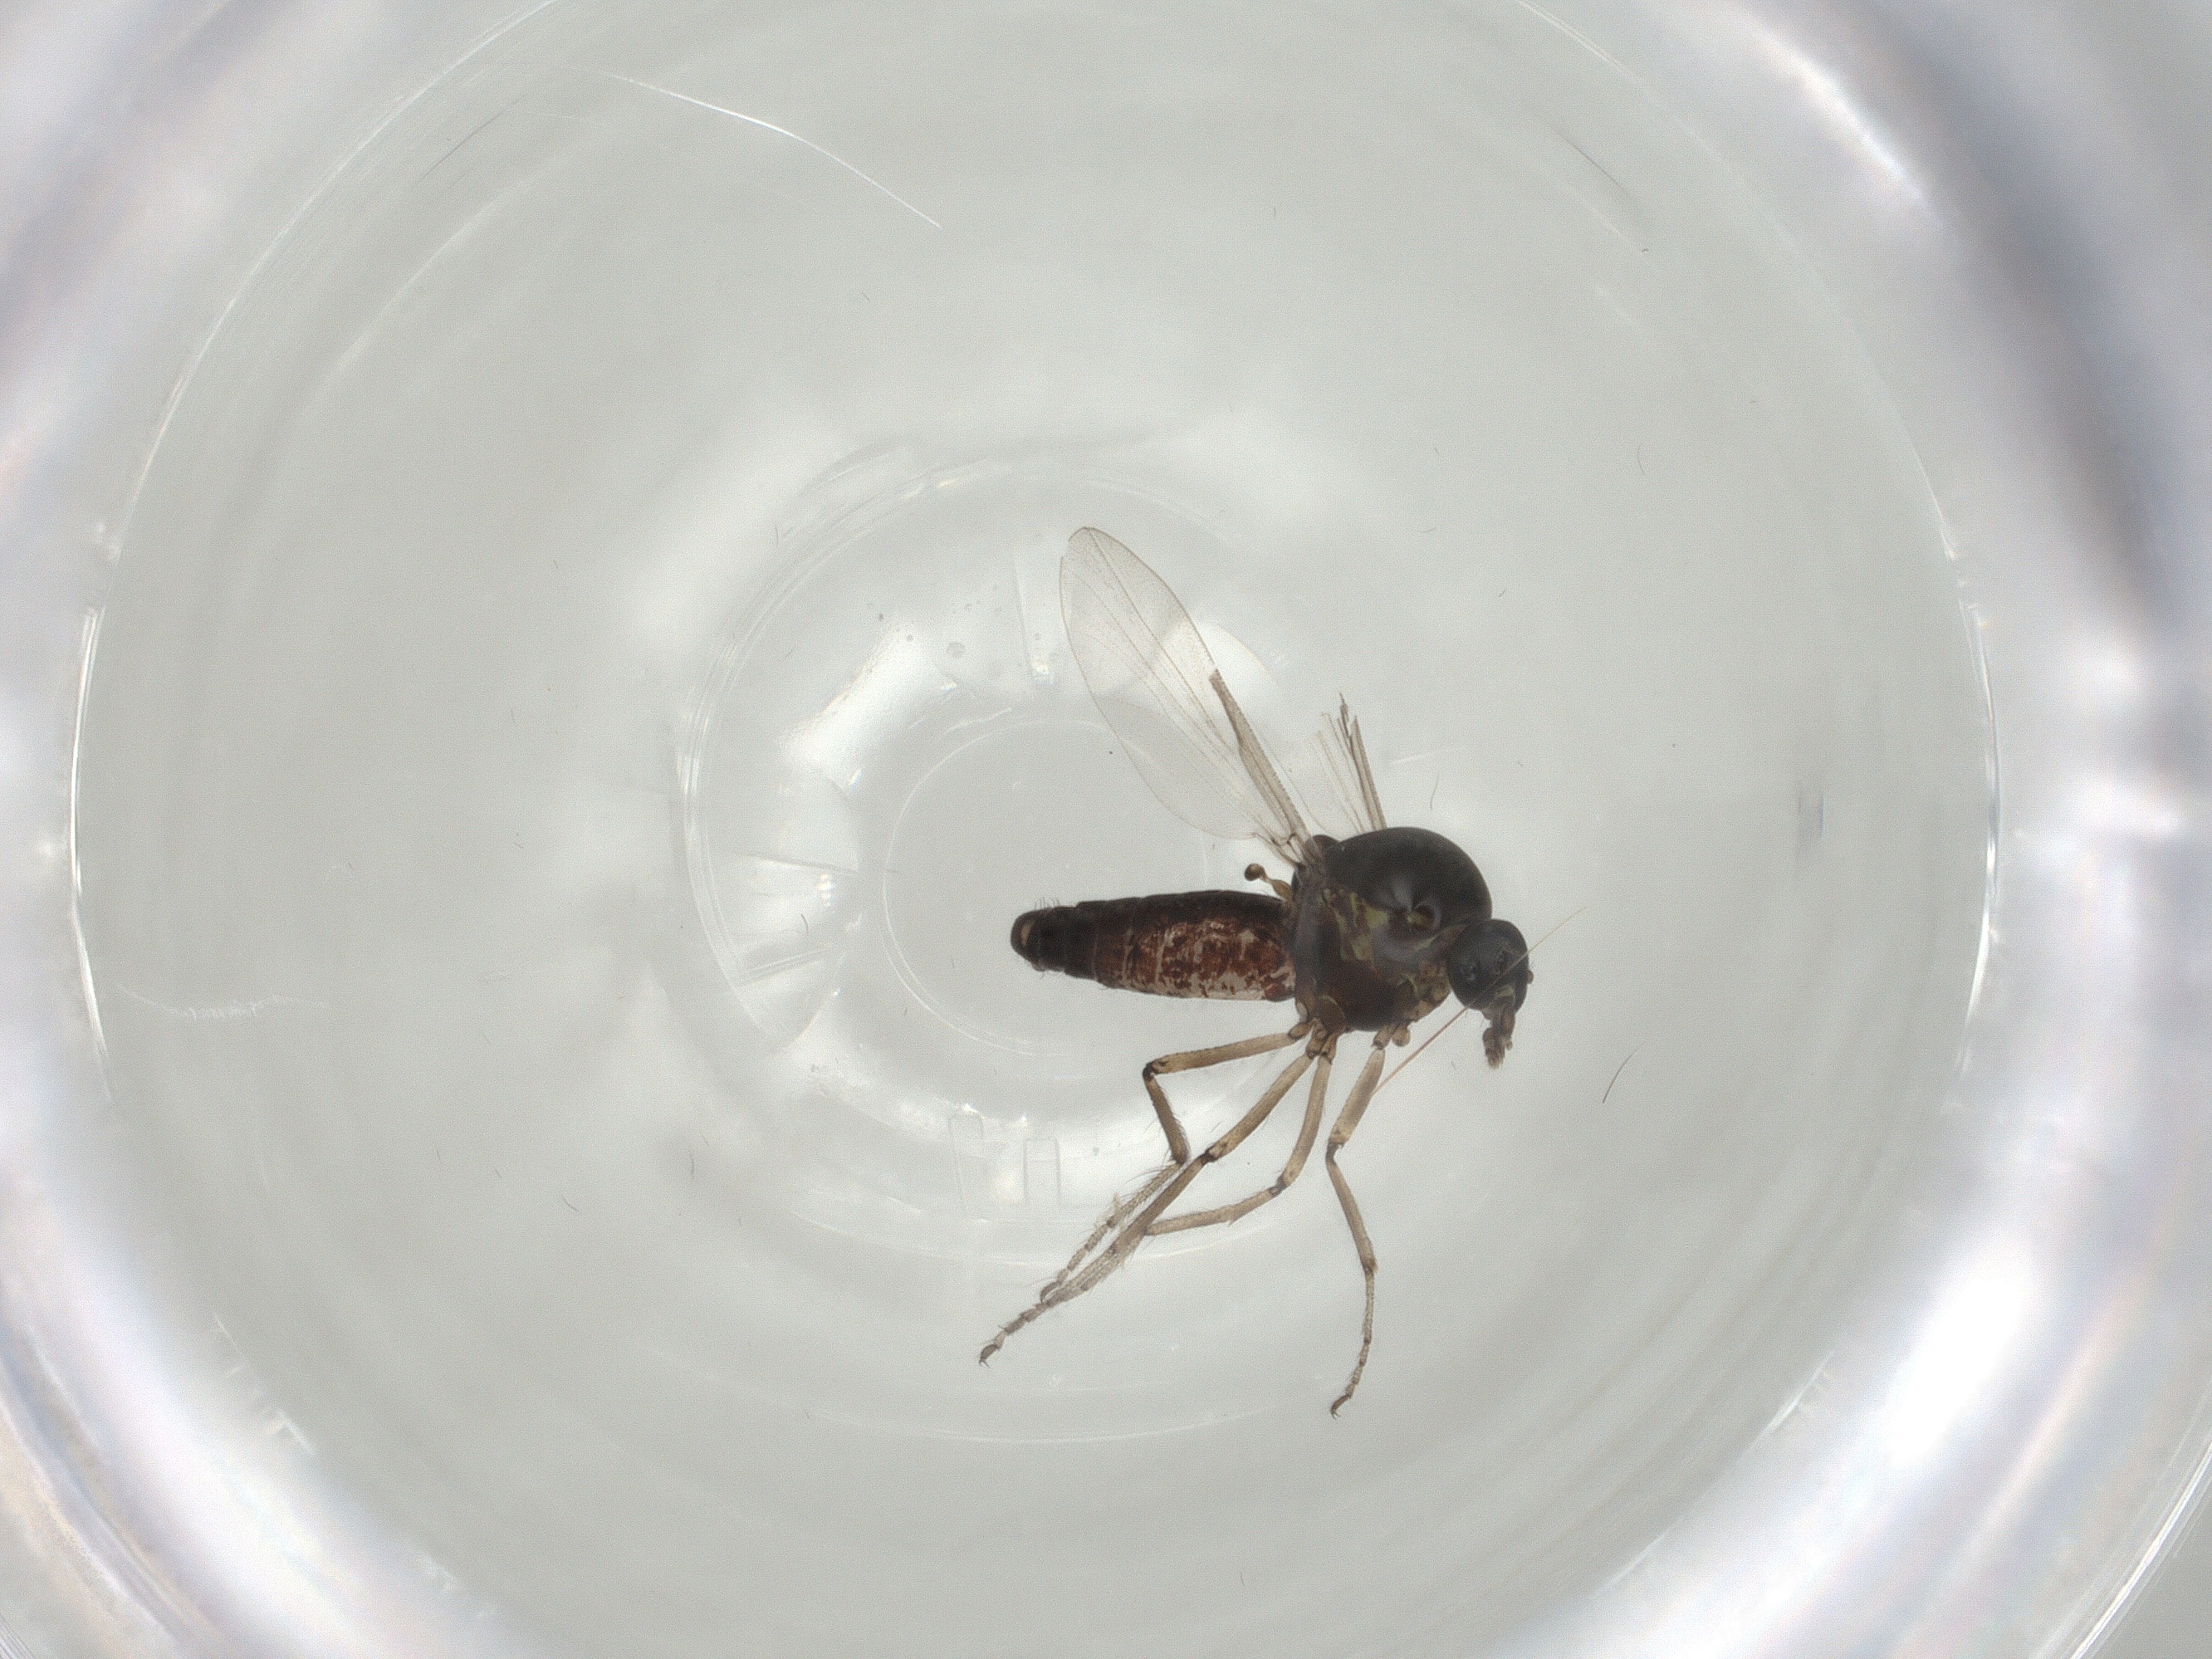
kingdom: Animalia
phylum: Arthropoda
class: Insecta
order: Diptera
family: Ceratopogonidae
